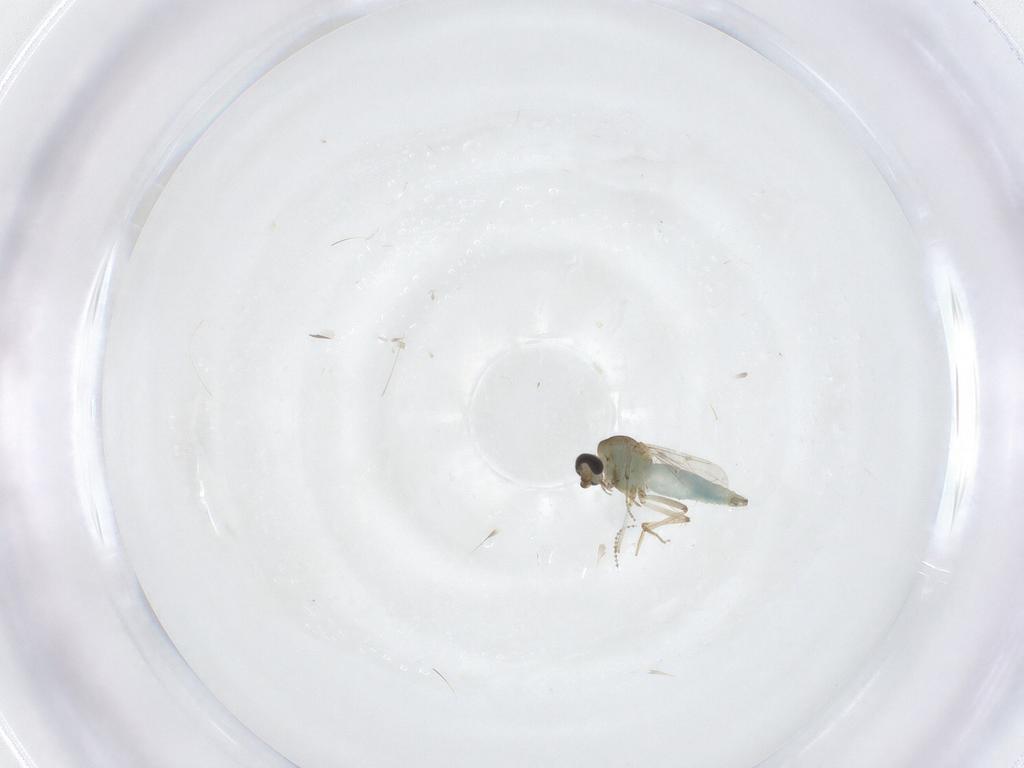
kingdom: Animalia
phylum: Arthropoda
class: Insecta
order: Diptera
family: Ceratopogonidae
